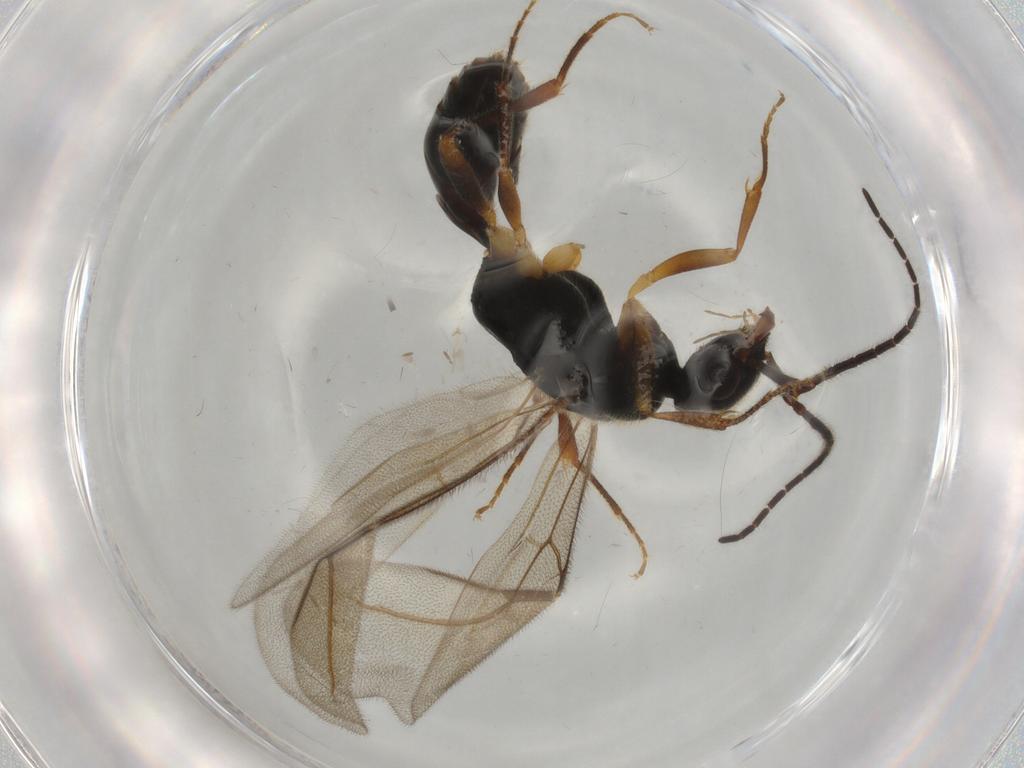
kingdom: Animalia
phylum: Arthropoda
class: Insecta
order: Hymenoptera
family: Bethylidae
